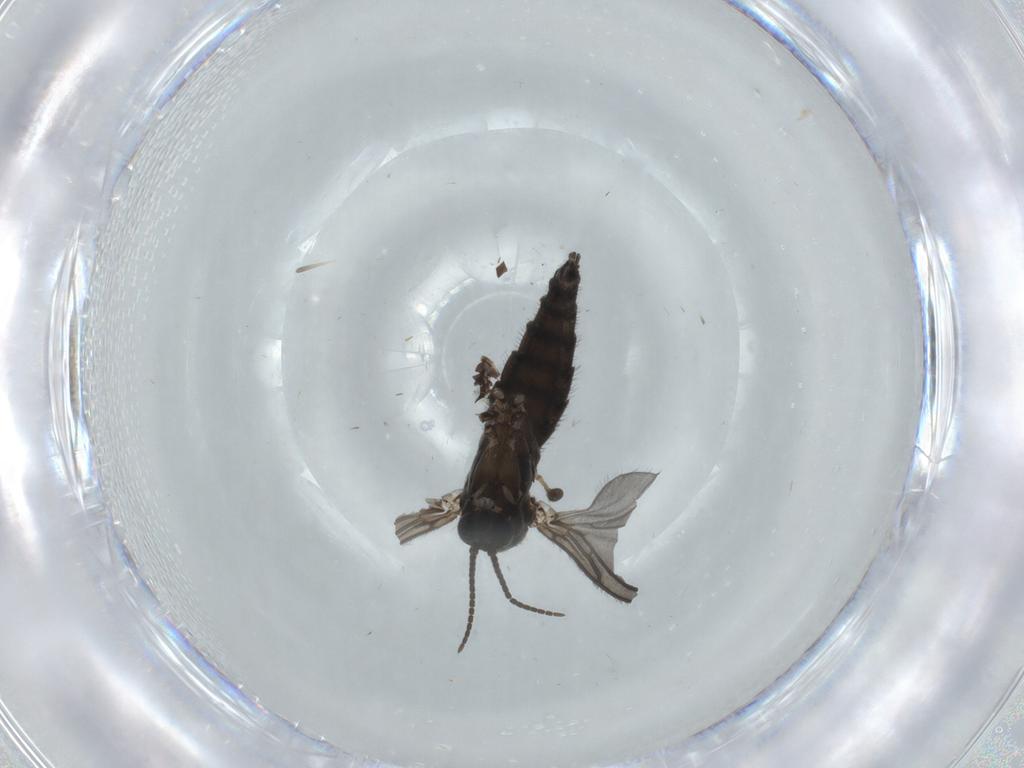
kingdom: Animalia
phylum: Arthropoda
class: Insecta
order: Diptera
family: Sciaridae
